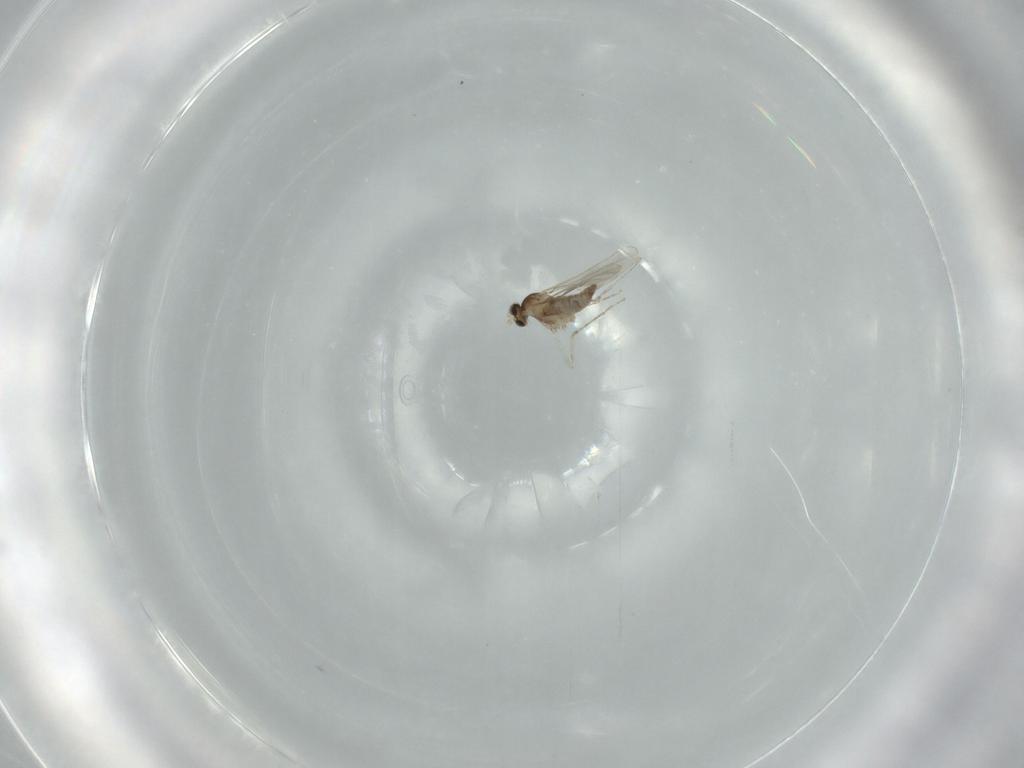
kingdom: Animalia
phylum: Arthropoda
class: Insecta
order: Diptera
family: Cecidomyiidae
